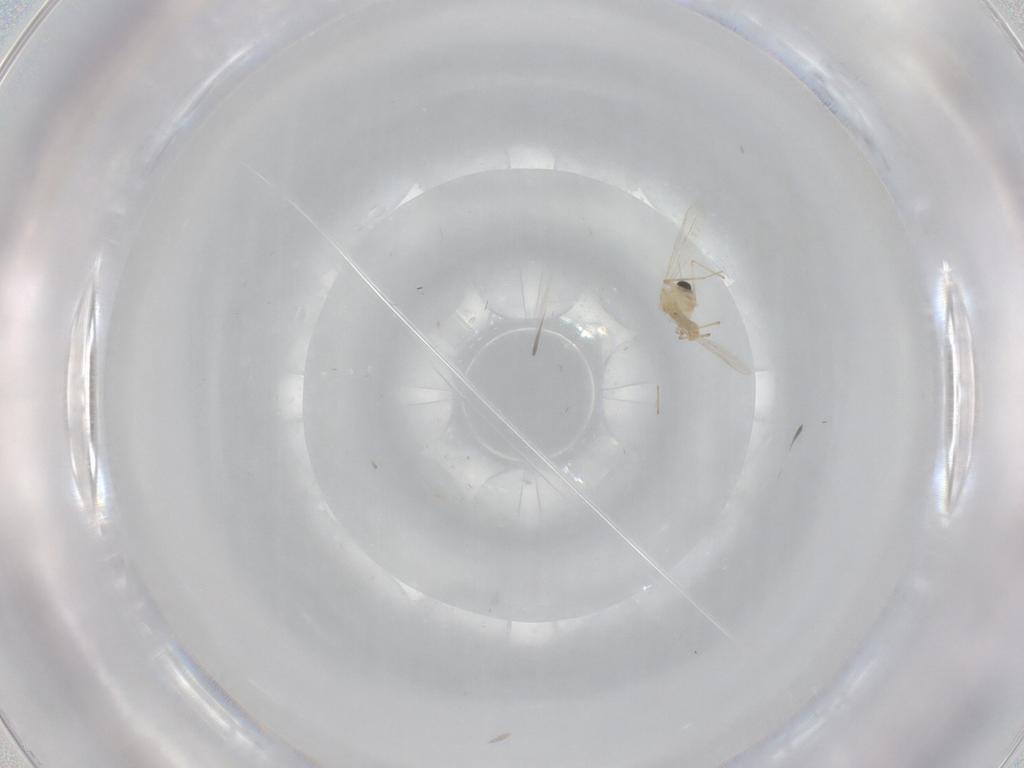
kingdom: Animalia
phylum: Arthropoda
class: Insecta
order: Diptera
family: Chironomidae
